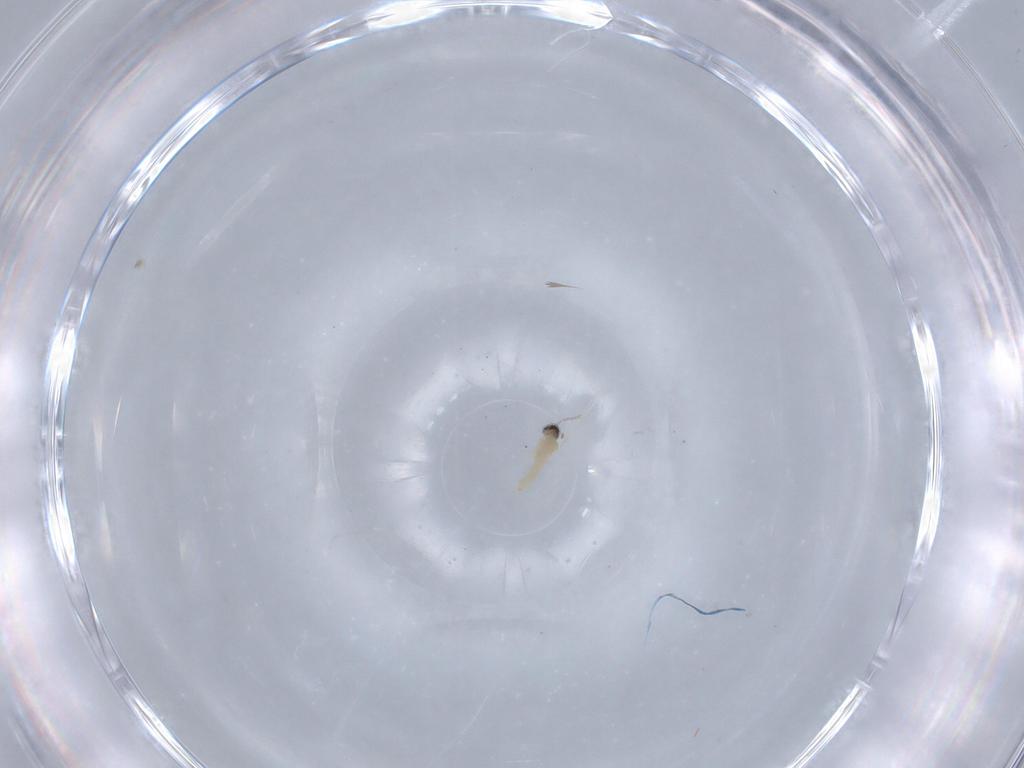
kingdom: Animalia
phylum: Arthropoda
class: Insecta
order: Diptera
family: Cecidomyiidae
